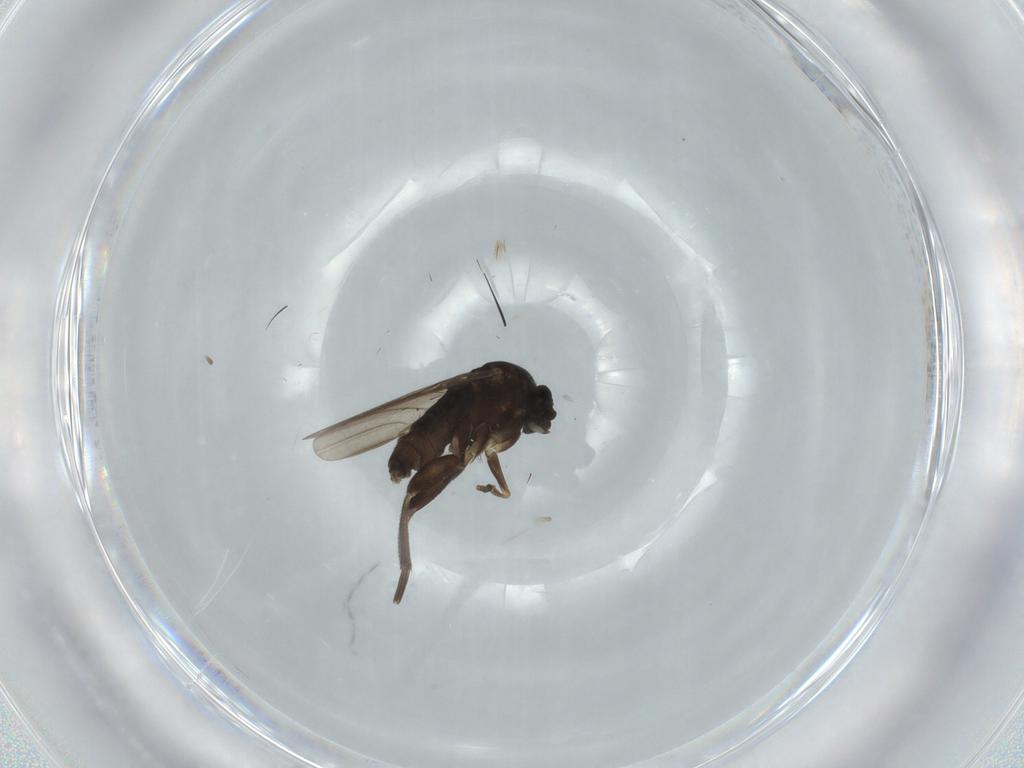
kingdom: Animalia
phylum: Arthropoda
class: Insecta
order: Diptera
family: Phoridae
